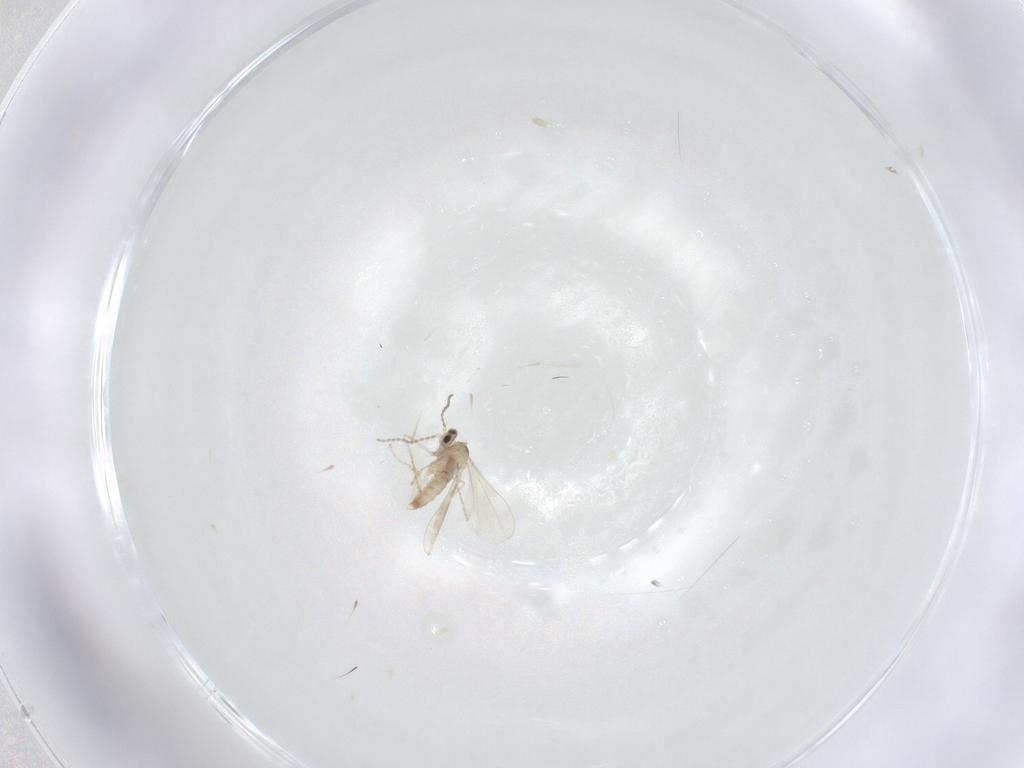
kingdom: Animalia
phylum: Arthropoda
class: Insecta
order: Diptera
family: Cecidomyiidae
